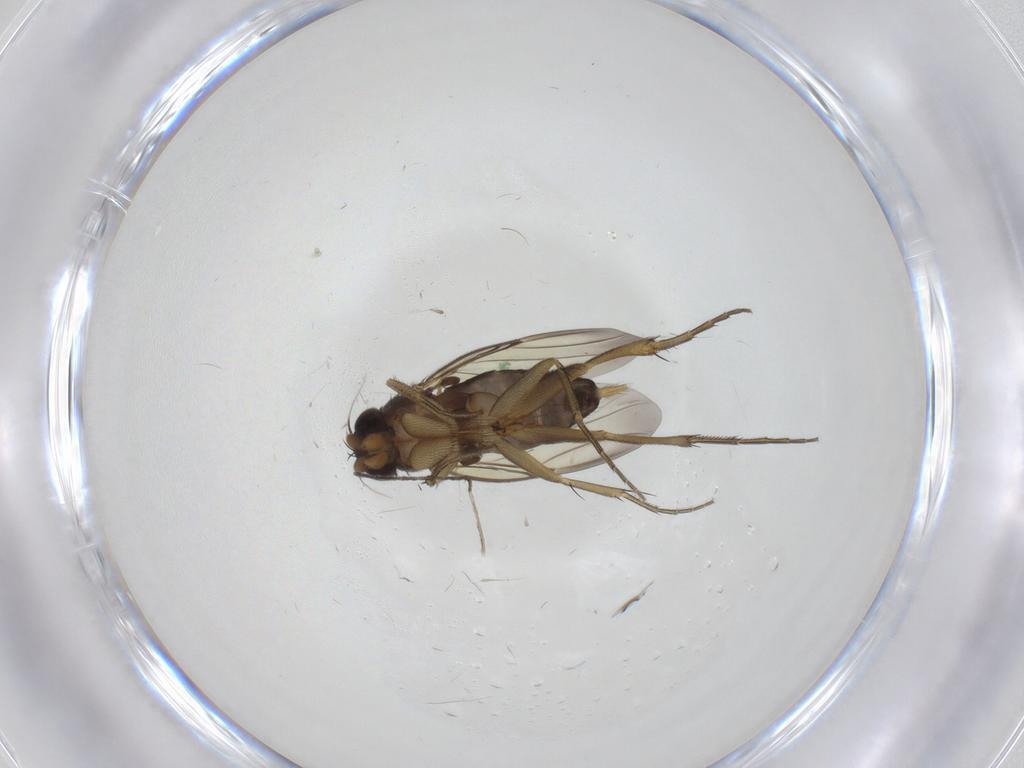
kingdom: Animalia
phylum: Arthropoda
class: Insecta
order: Diptera
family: Phoridae
